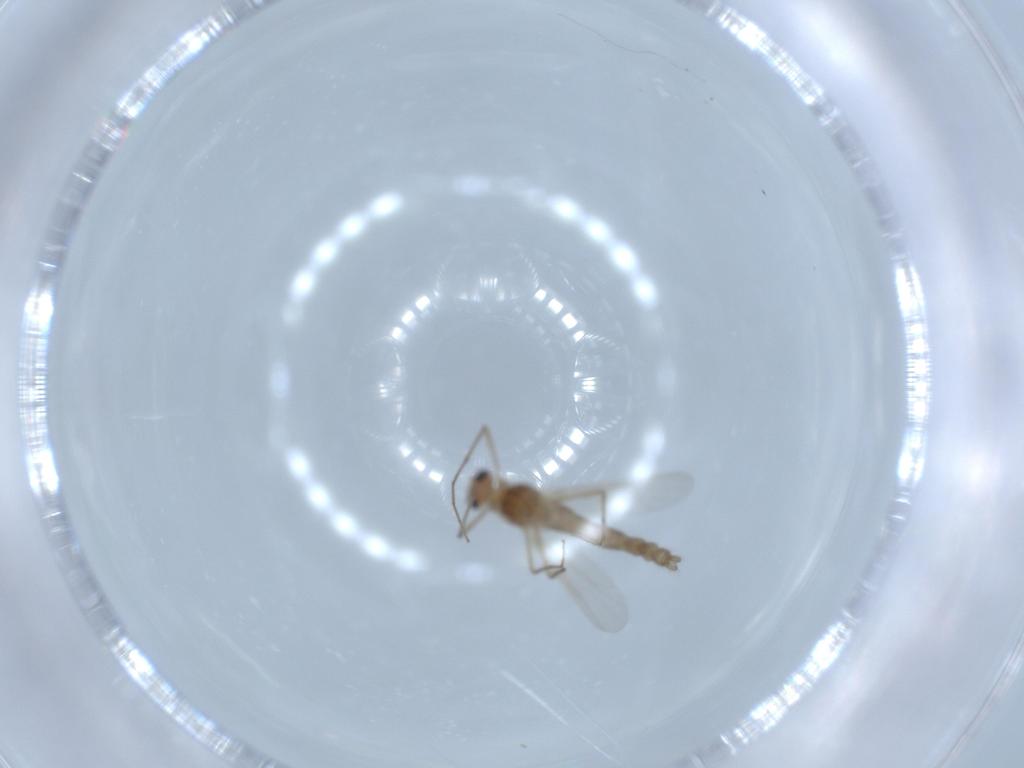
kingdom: Animalia
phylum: Arthropoda
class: Insecta
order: Diptera
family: Chironomidae
